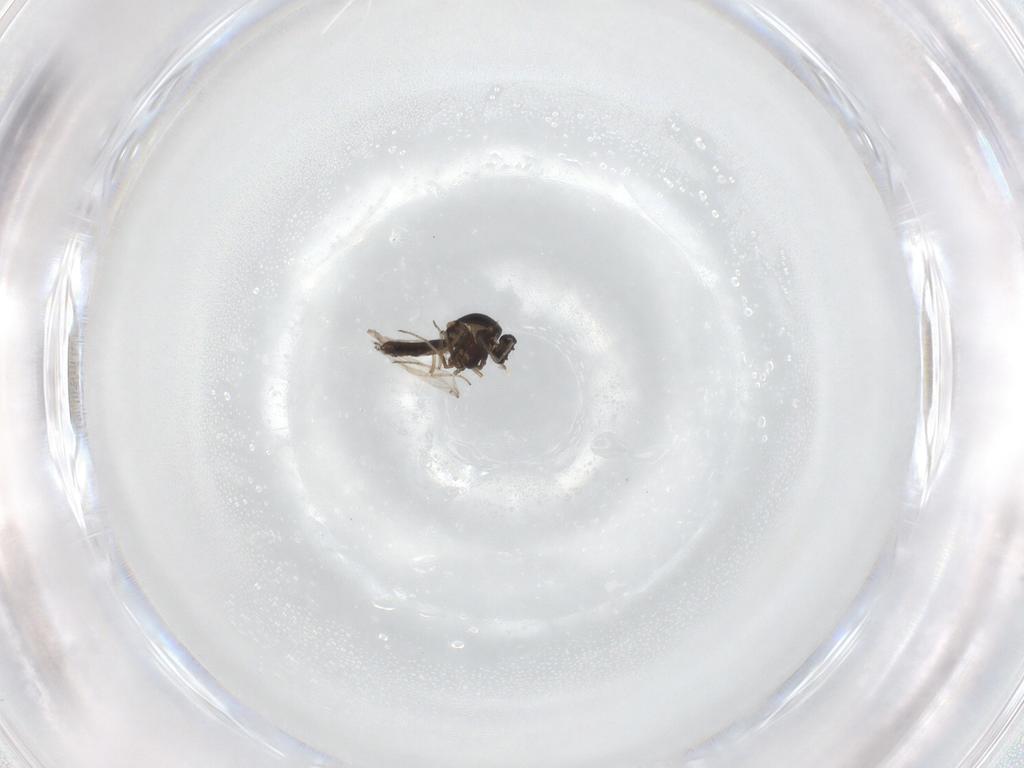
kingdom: Animalia
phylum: Arthropoda
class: Insecta
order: Diptera
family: Ceratopogonidae
